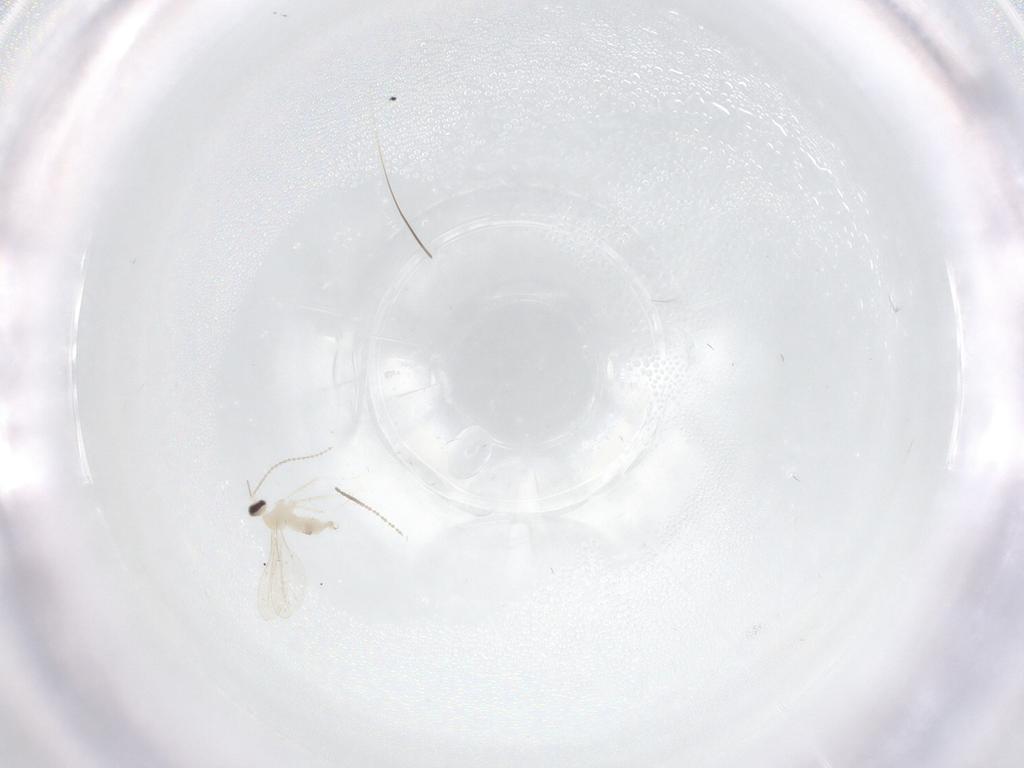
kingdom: Animalia
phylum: Arthropoda
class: Insecta
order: Diptera
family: Cecidomyiidae
